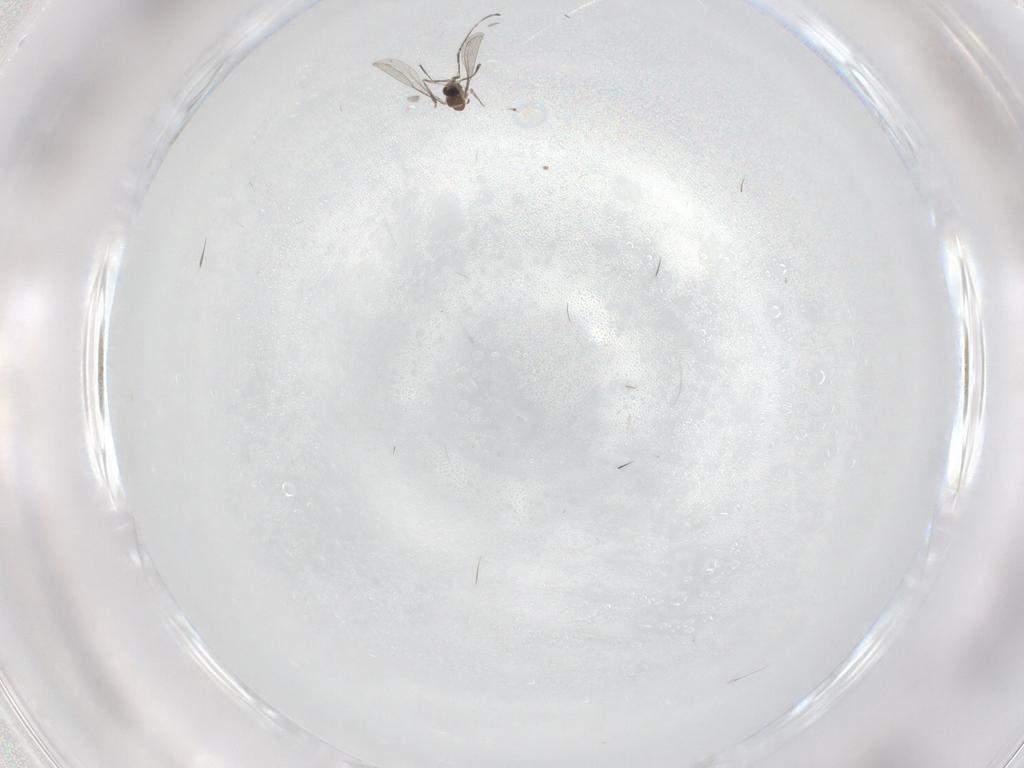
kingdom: Animalia
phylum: Arthropoda
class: Insecta
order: Diptera
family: Cecidomyiidae
